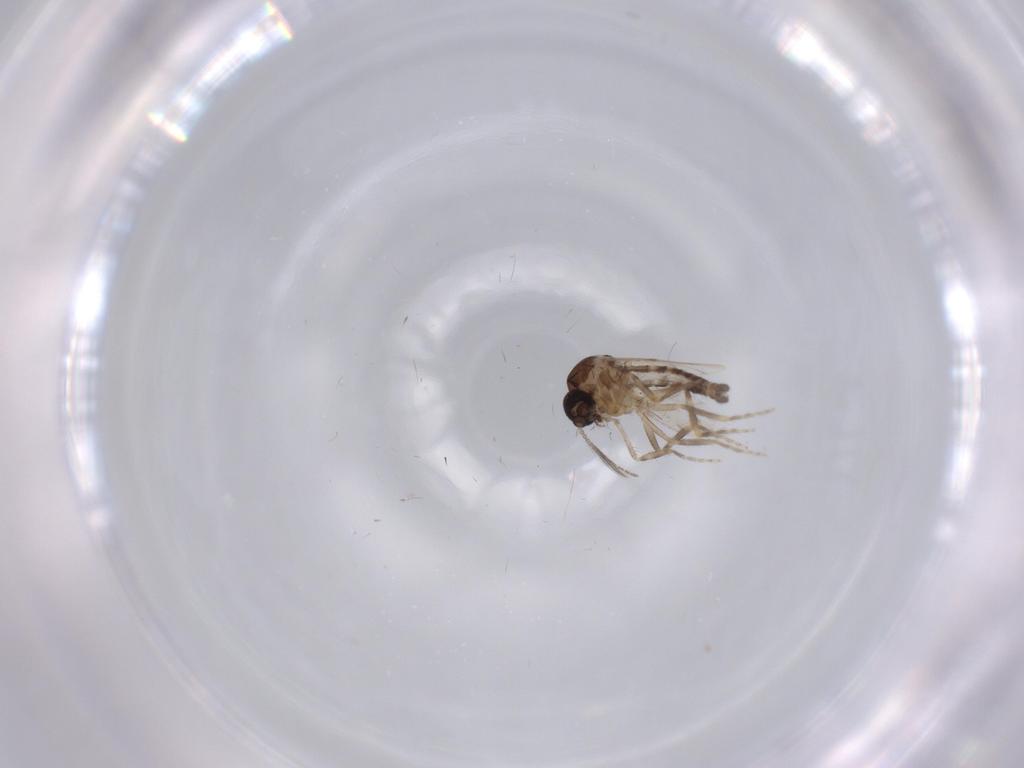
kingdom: Animalia
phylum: Arthropoda
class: Insecta
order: Diptera
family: Ceratopogonidae
